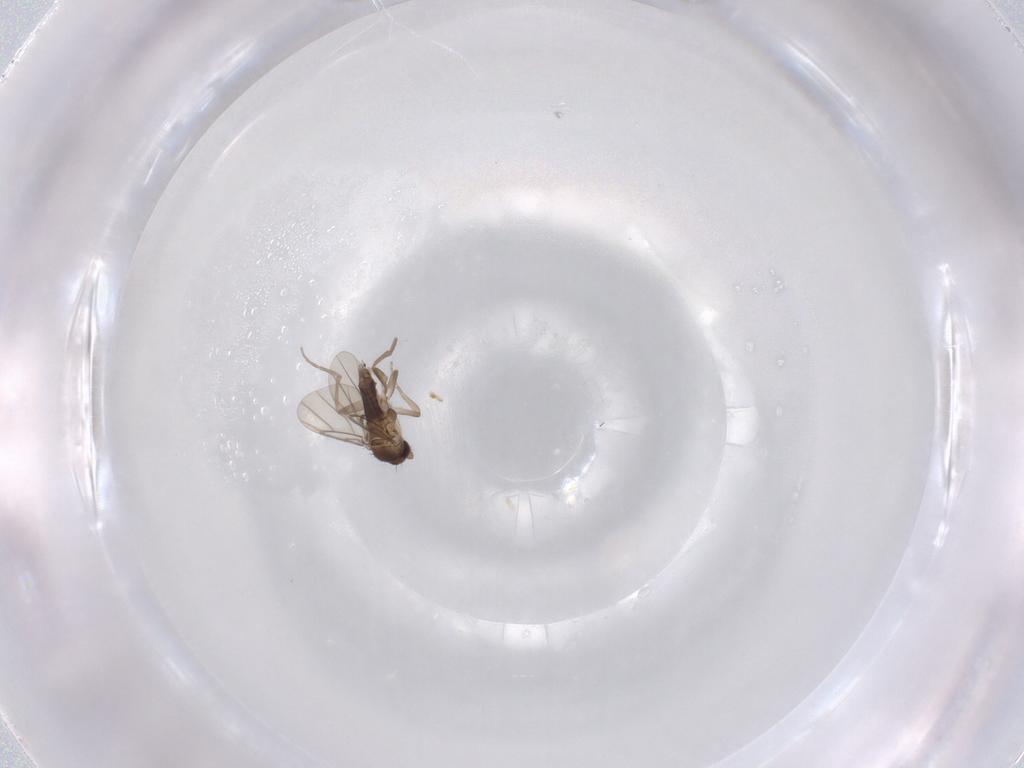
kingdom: Animalia
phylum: Arthropoda
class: Insecta
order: Diptera
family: Phoridae
